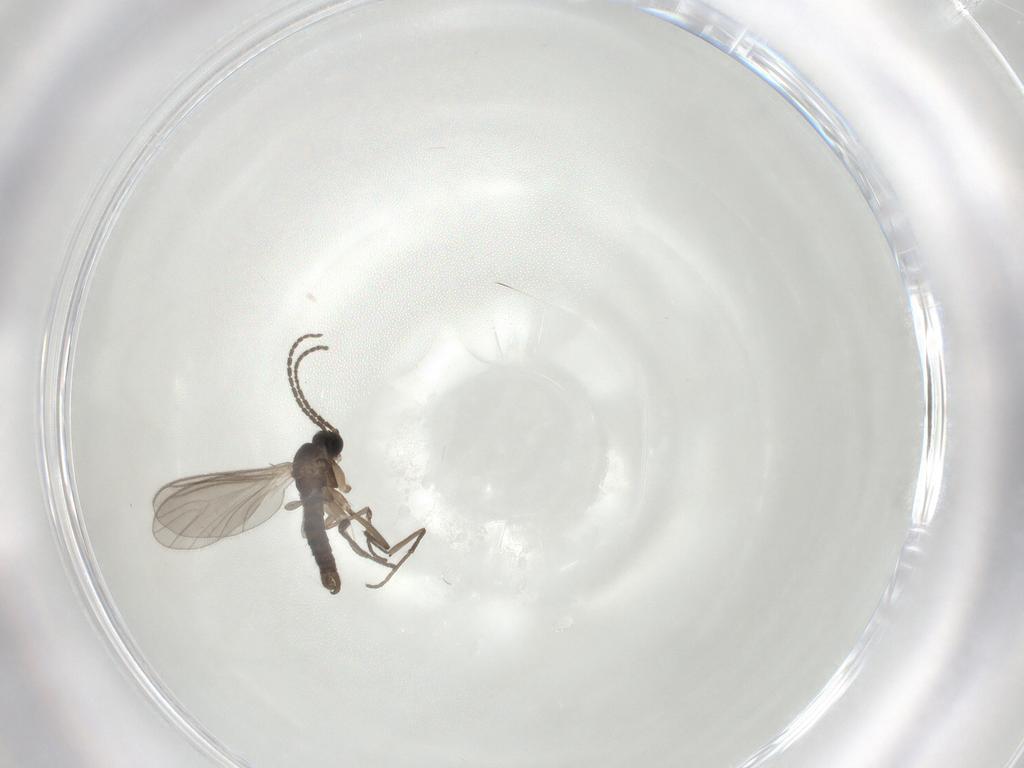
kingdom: Animalia
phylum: Arthropoda
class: Insecta
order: Diptera
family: Sciaridae
